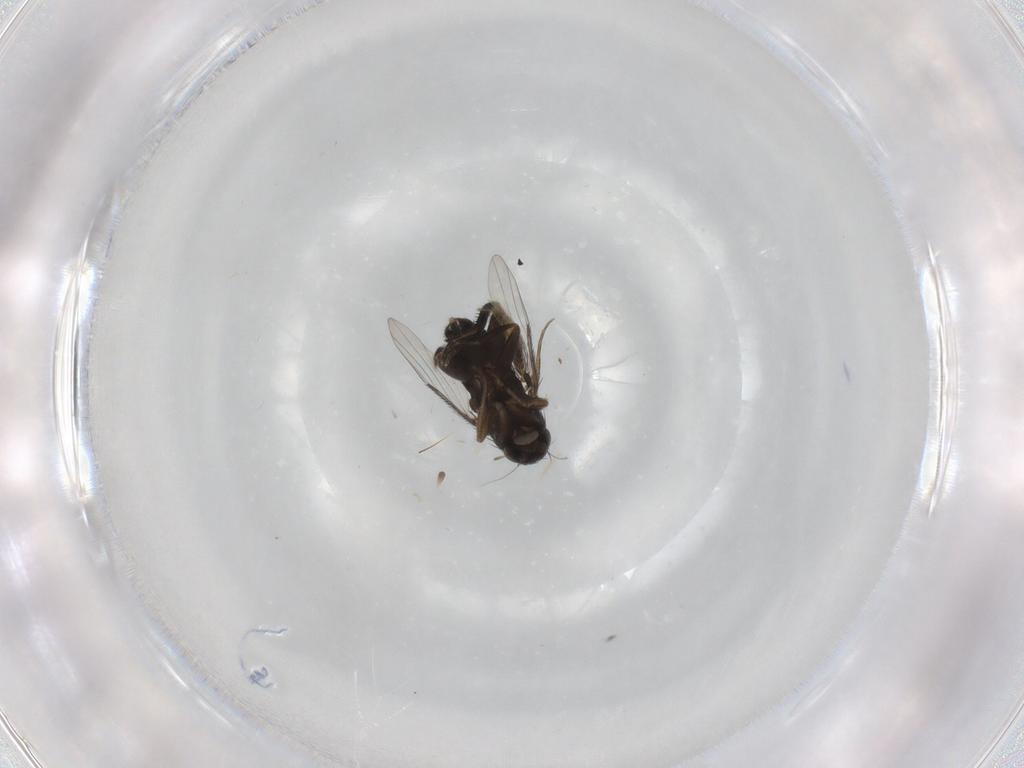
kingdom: Animalia
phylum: Arthropoda
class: Insecta
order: Diptera
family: Phoridae
